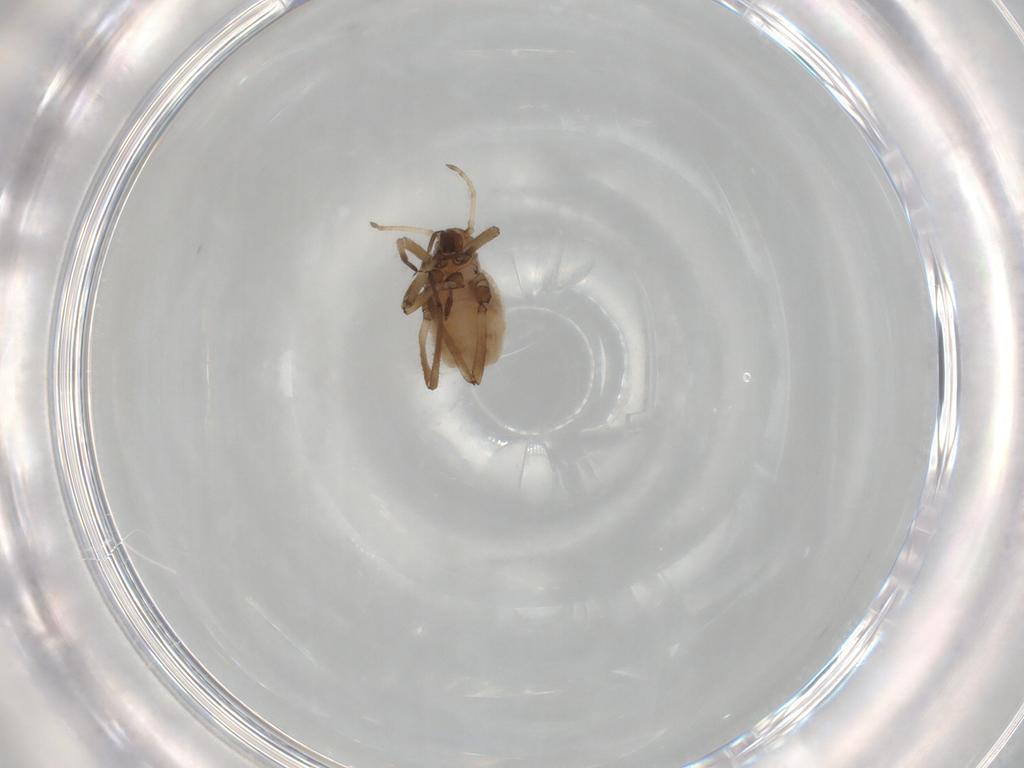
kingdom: Animalia
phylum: Arthropoda
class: Insecta
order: Hemiptera
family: Aphididae
